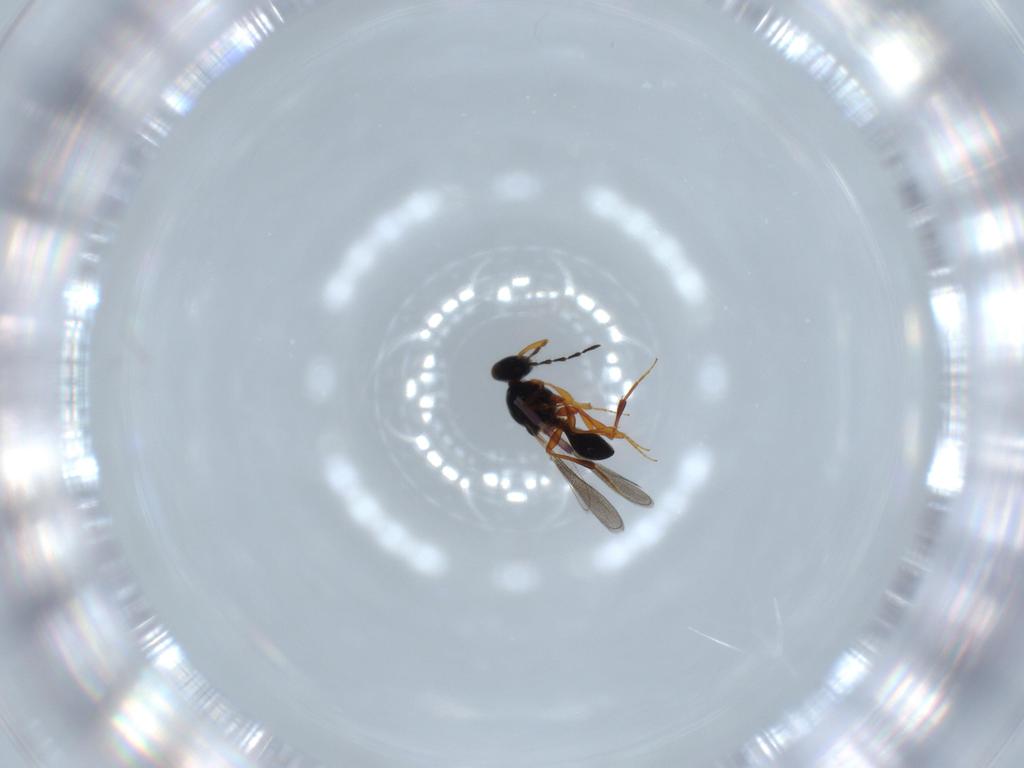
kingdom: Animalia
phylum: Arthropoda
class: Insecta
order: Hymenoptera
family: Platygastridae
